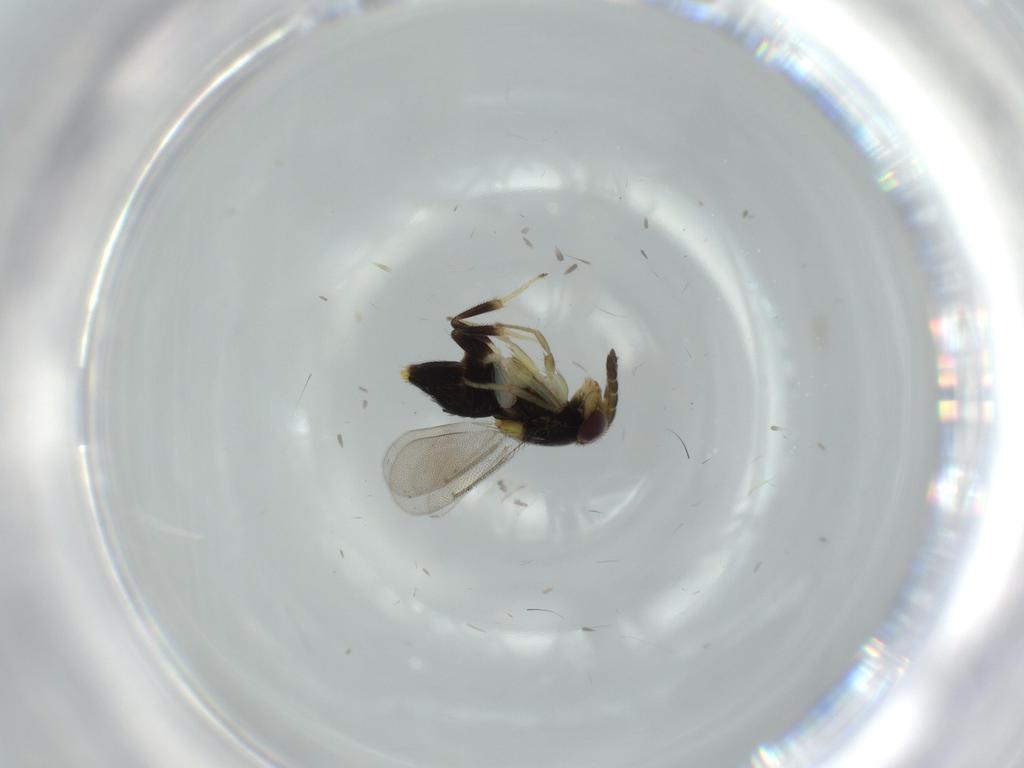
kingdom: Animalia
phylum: Arthropoda
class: Insecta
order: Hymenoptera
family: Aphelinidae
